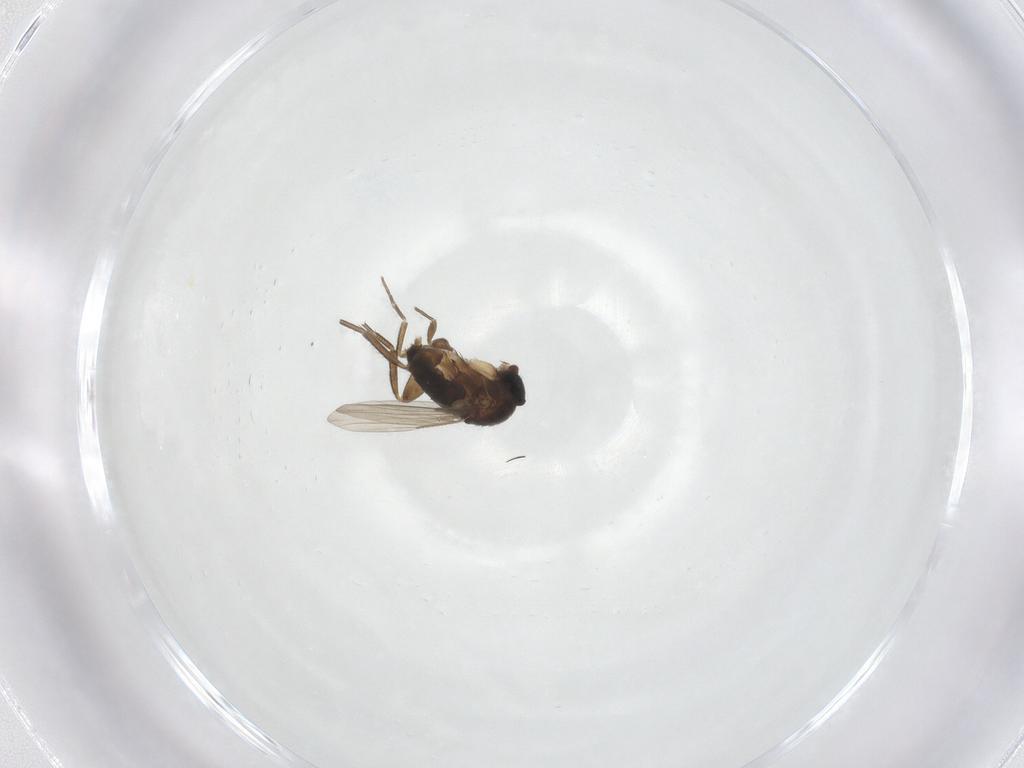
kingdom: Animalia
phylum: Arthropoda
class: Insecta
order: Diptera
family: Phoridae
